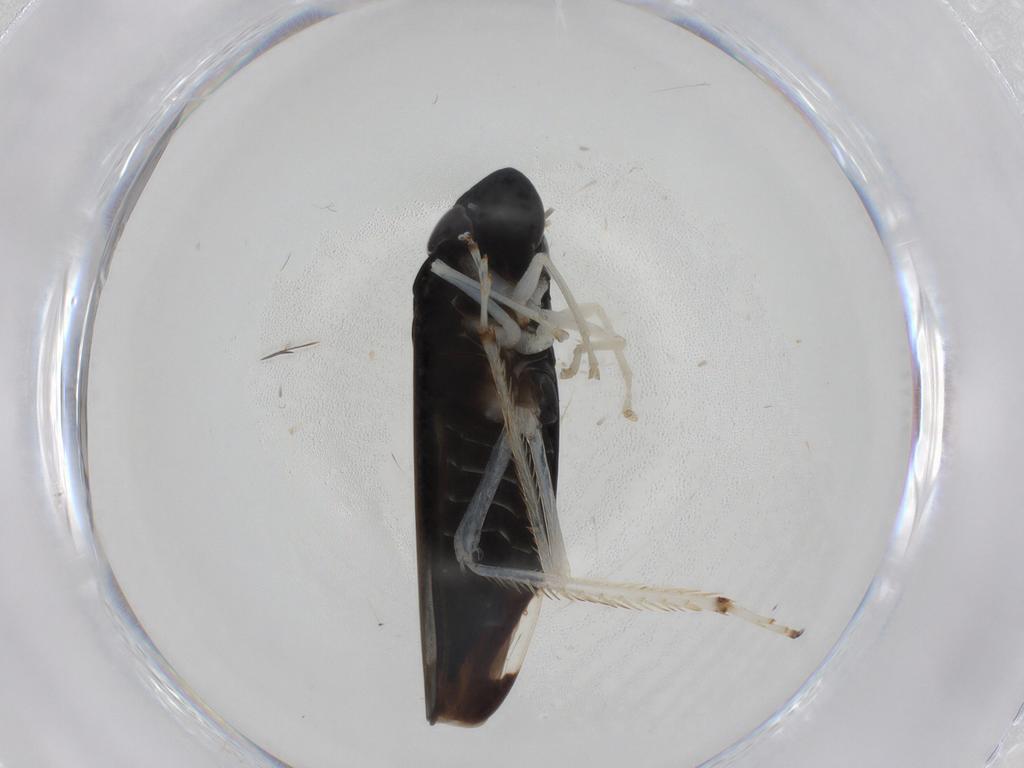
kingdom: Animalia
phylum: Arthropoda
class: Insecta
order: Hemiptera
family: Cicadellidae
